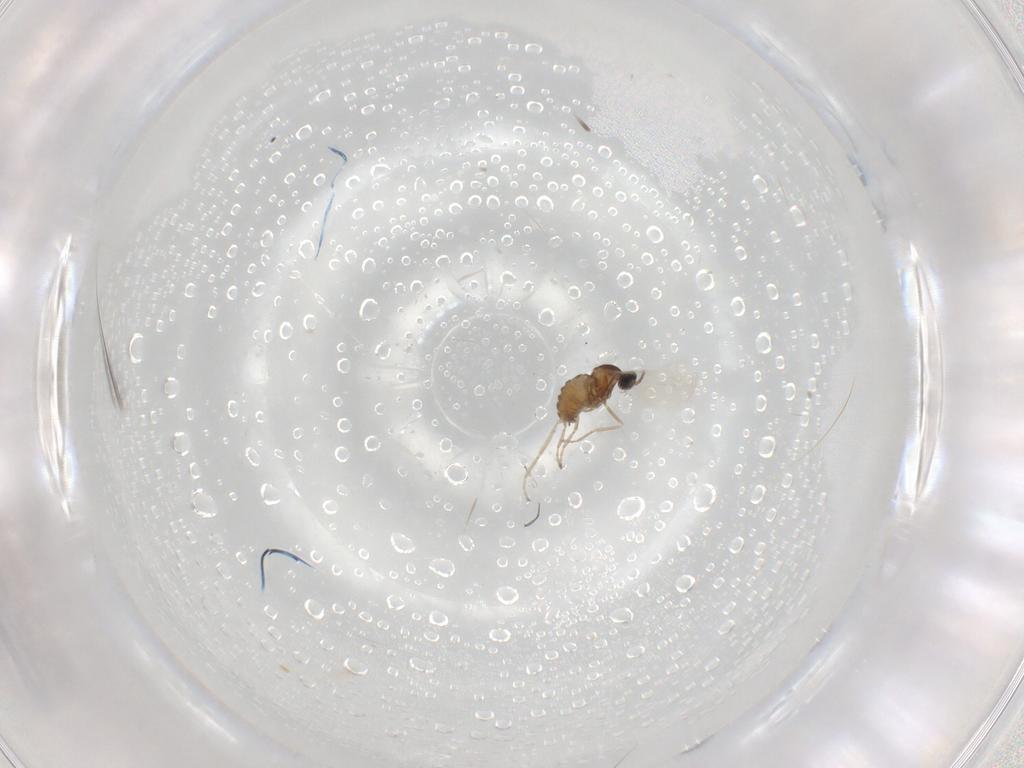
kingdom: Animalia
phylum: Arthropoda
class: Insecta
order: Diptera
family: Cecidomyiidae
